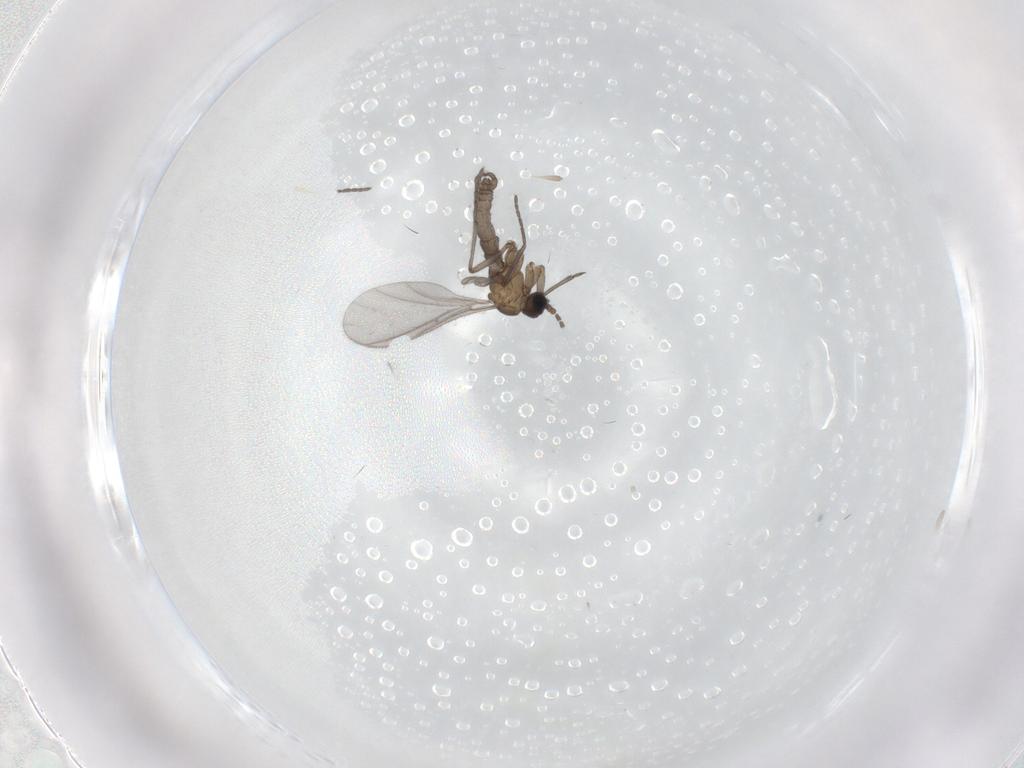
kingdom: Animalia
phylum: Arthropoda
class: Insecta
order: Diptera
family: Sciaridae
